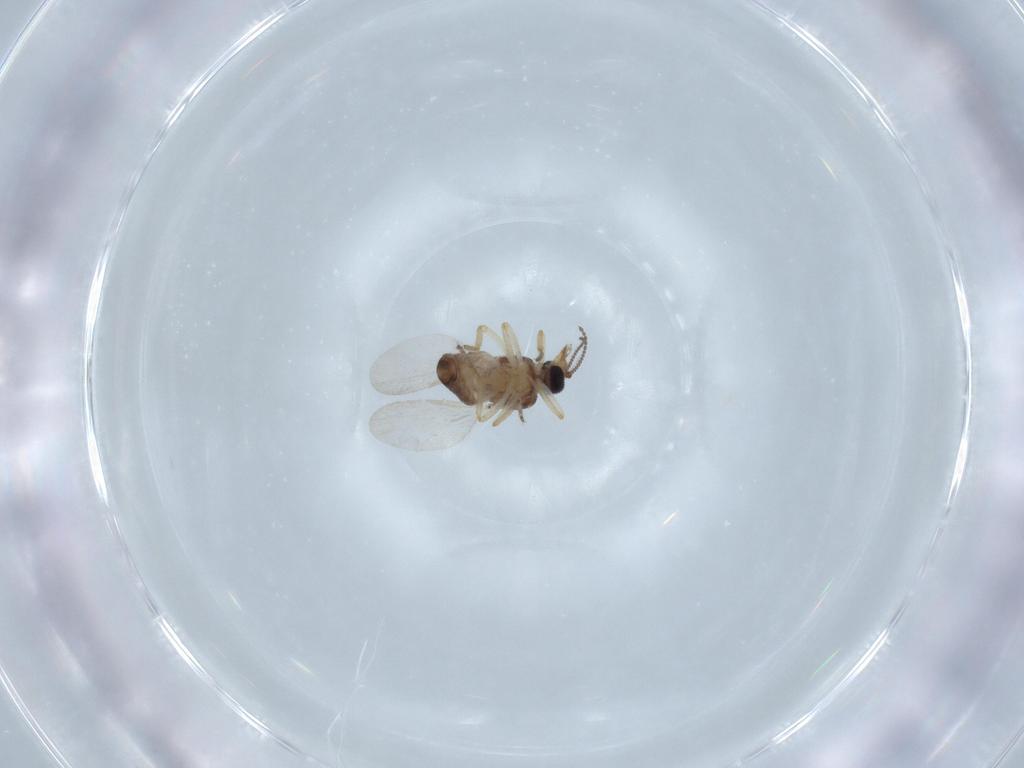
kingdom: Animalia
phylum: Arthropoda
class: Insecta
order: Diptera
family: Ceratopogonidae
